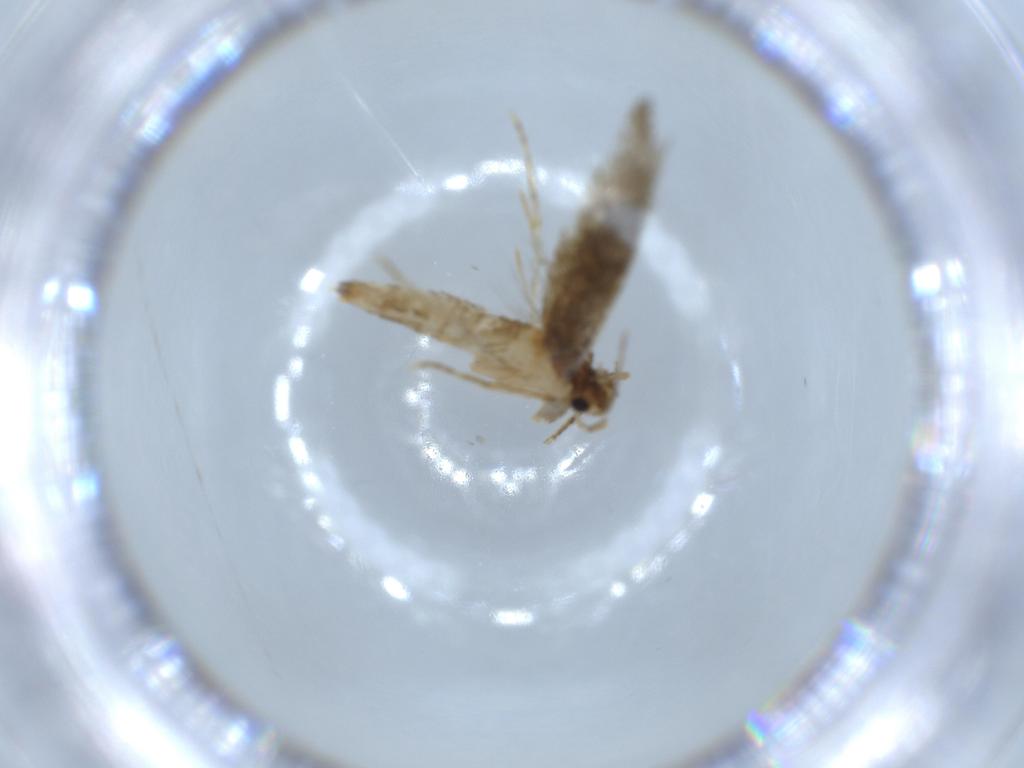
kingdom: Animalia
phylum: Arthropoda
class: Insecta
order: Lepidoptera
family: Tineidae
